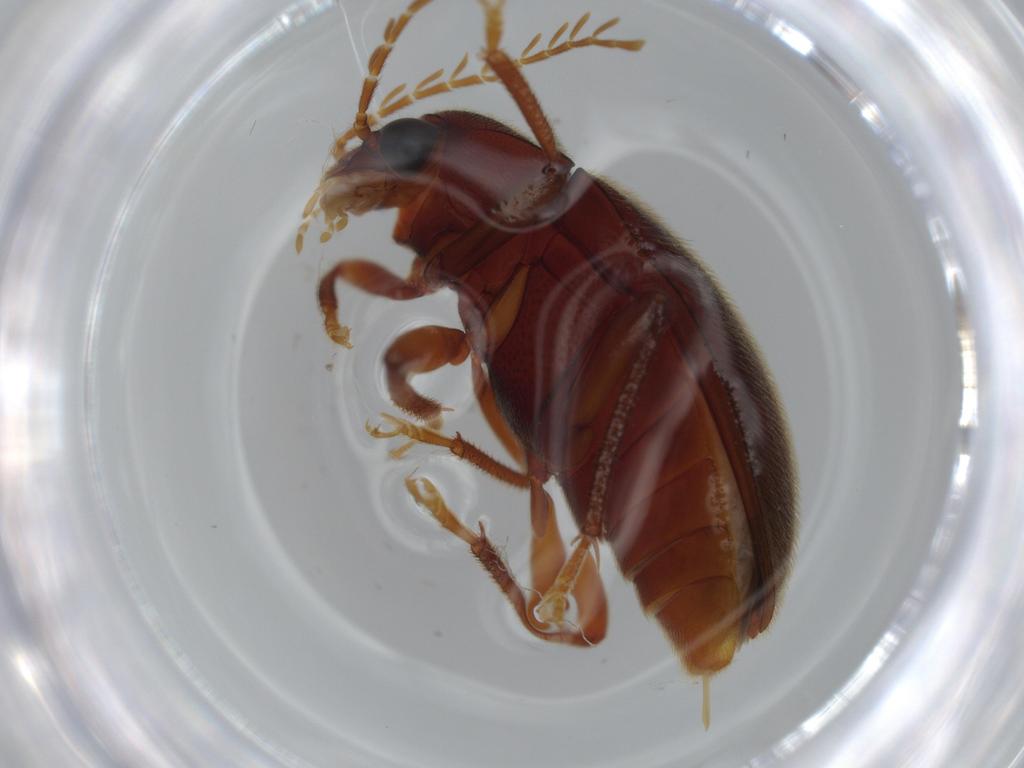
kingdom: Animalia
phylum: Arthropoda
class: Insecta
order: Coleoptera
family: Ptilodactylidae
